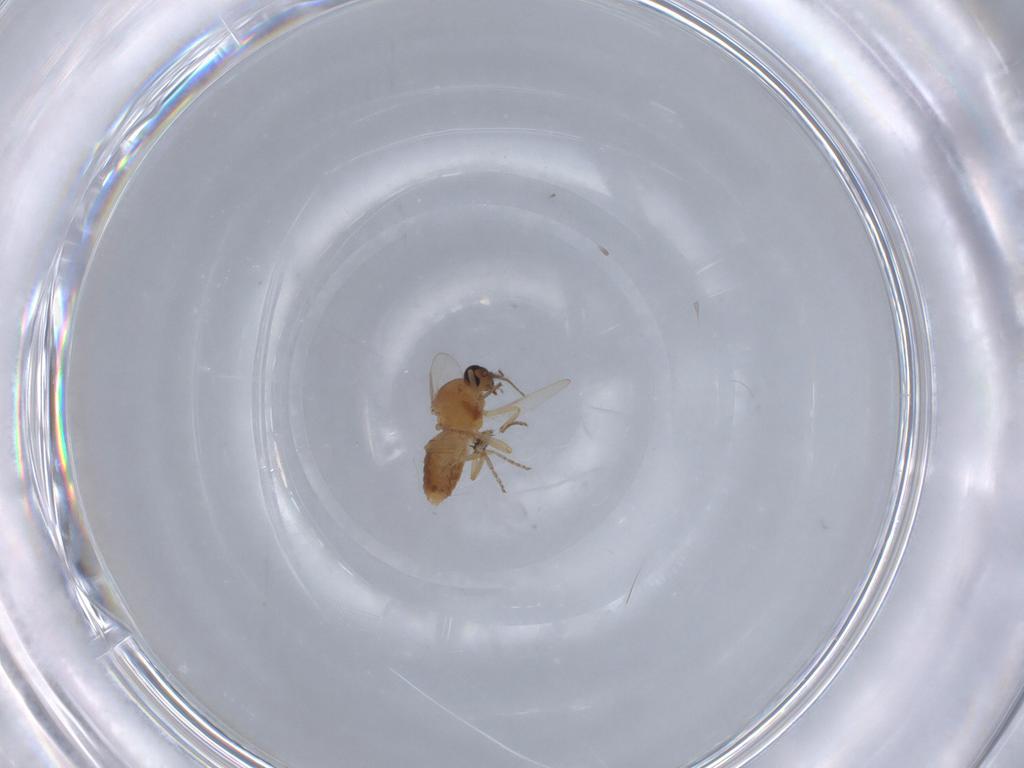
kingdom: Animalia
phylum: Arthropoda
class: Insecta
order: Diptera
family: Ceratopogonidae
